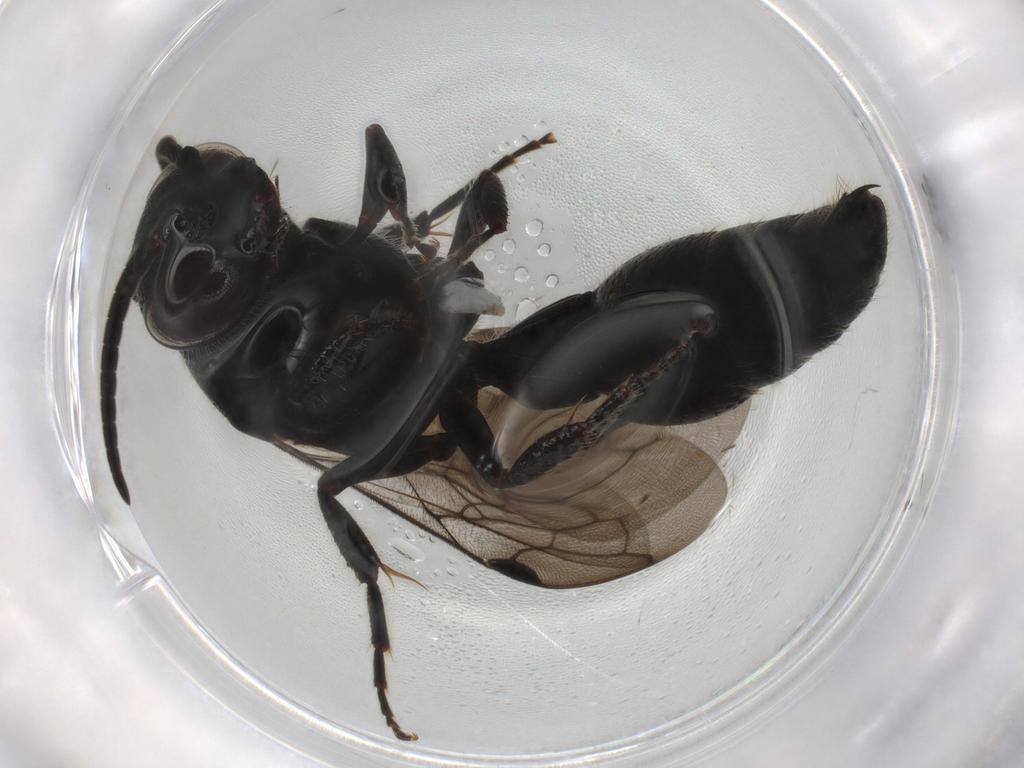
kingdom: Animalia
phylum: Arthropoda
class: Insecta
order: Hymenoptera
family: Tiphiidae
